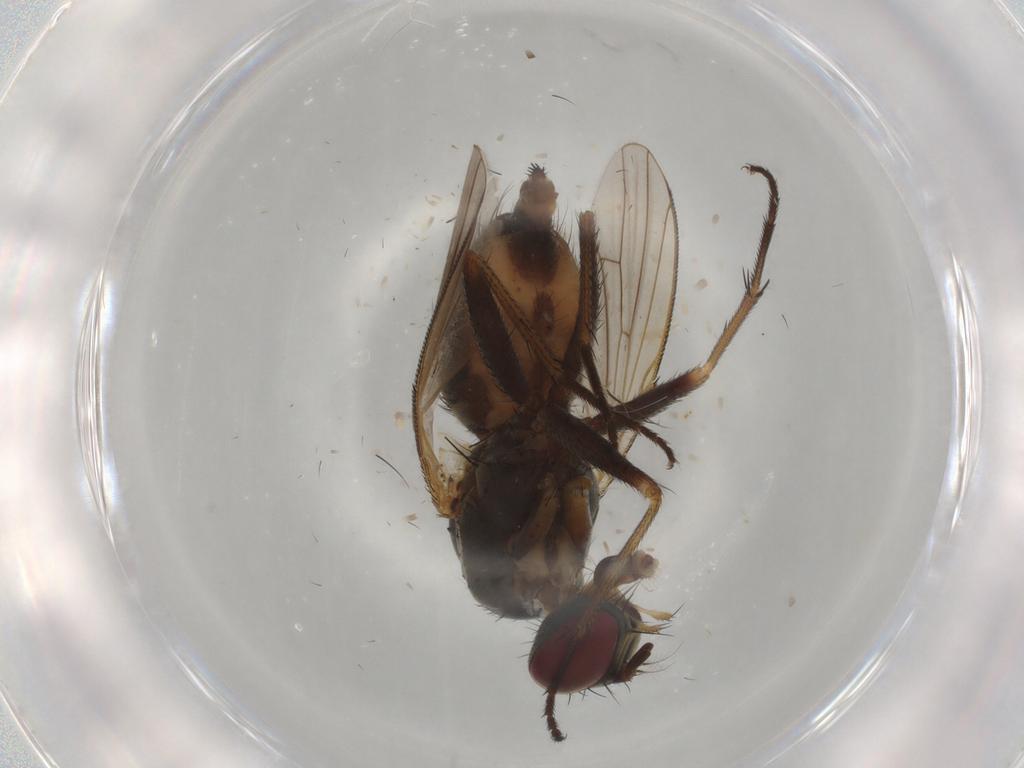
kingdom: Animalia
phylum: Arthropoda
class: Insecta
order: Diptera
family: Muscidae
